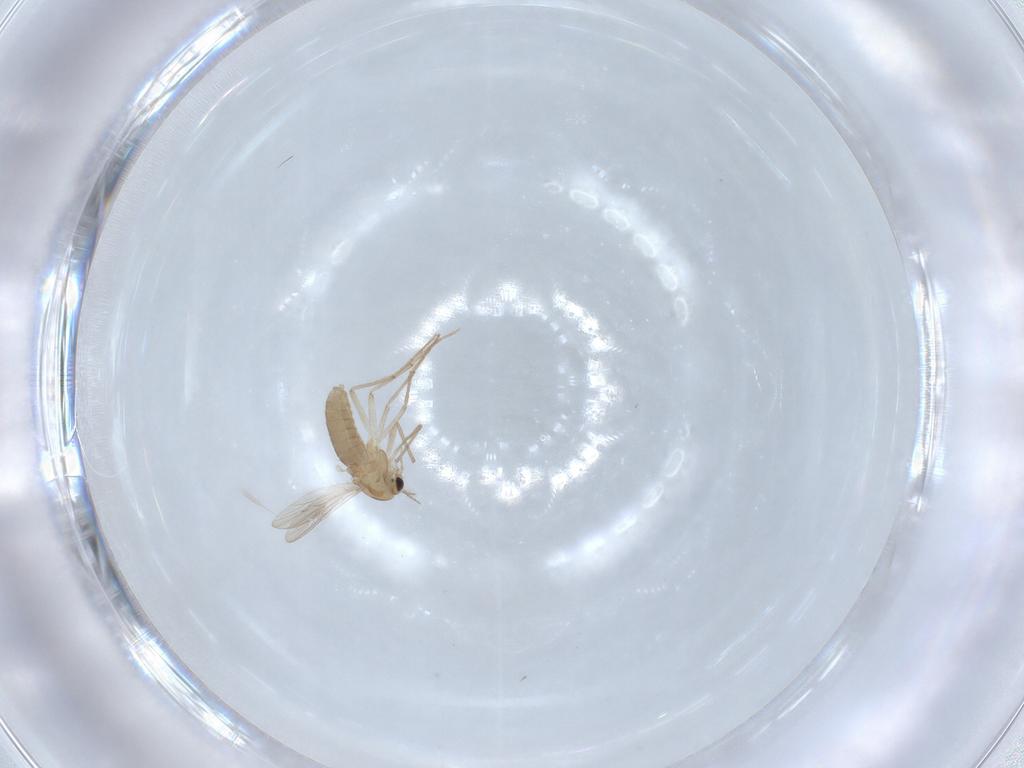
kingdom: Animalia
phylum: Arthropoda
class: Insecta
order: Diptera
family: Chironomidae
